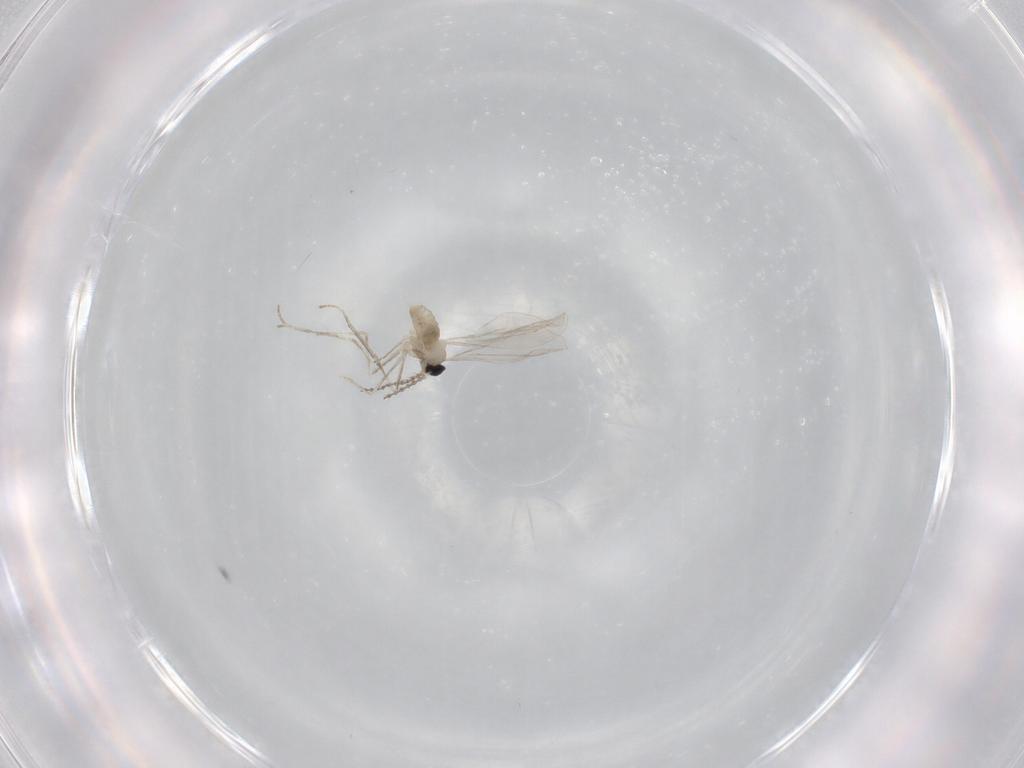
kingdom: Animalia
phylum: Arthropoda
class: Insecta
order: Diptera
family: Cecidomyiidae
